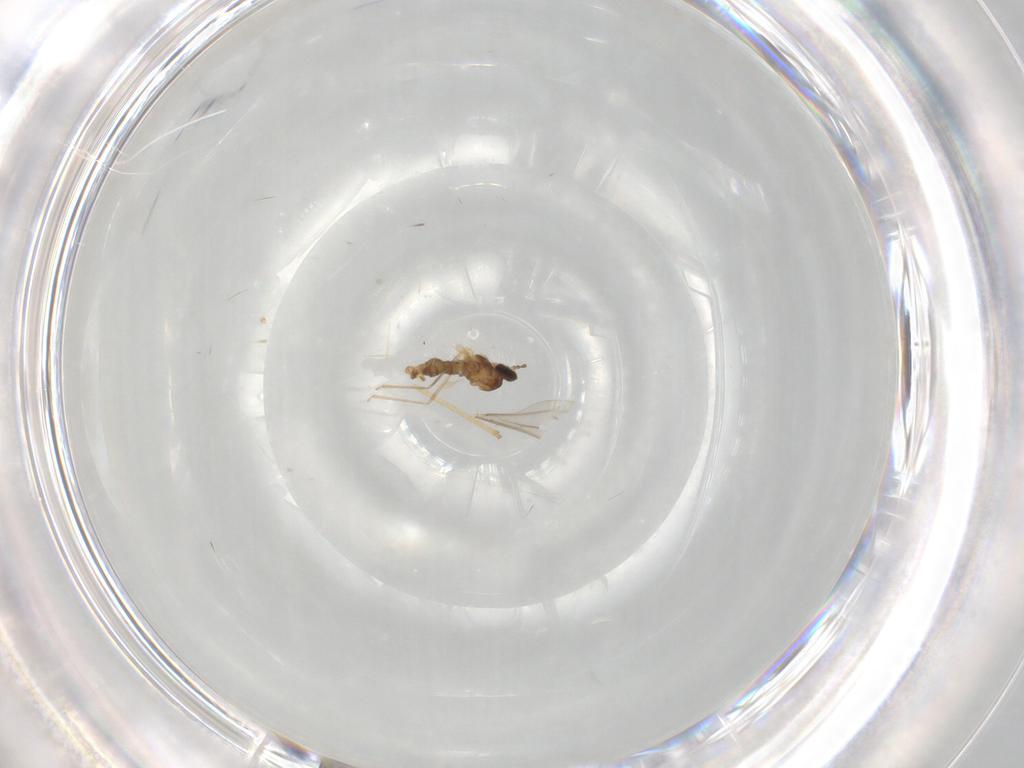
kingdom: Animalia
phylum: Arthropoda
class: Insecta
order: Diptera
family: Cecidomyiidae
